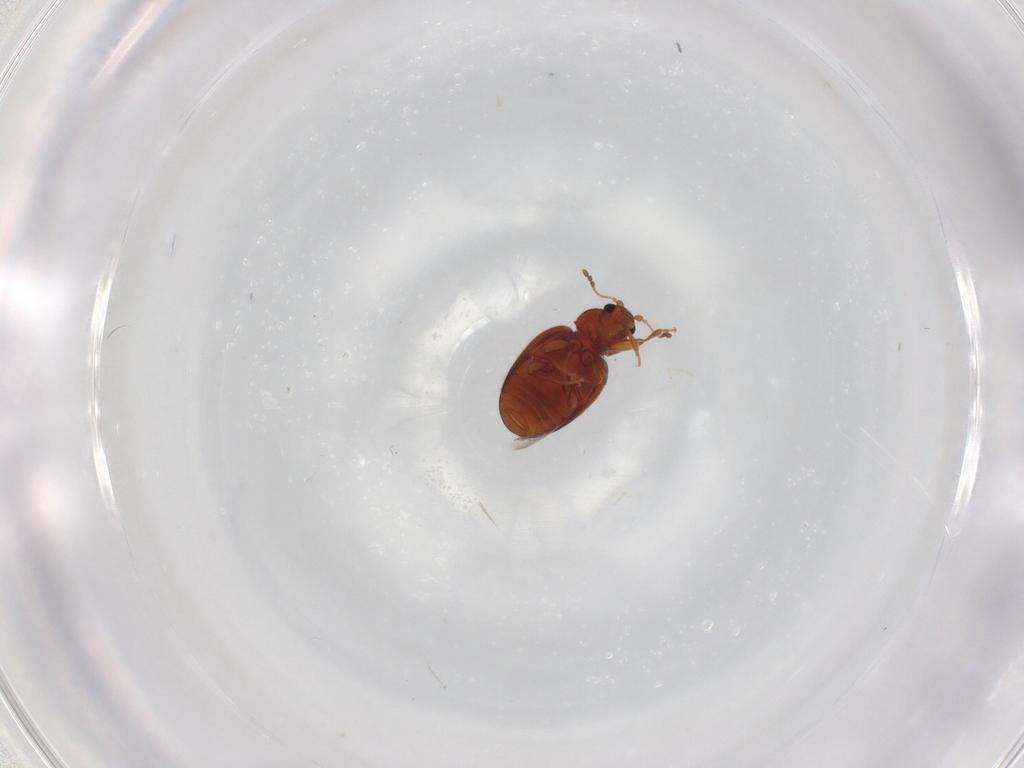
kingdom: Animalia
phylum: Arthropoda
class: Insecta
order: Coleoptera
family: Latridiidae
